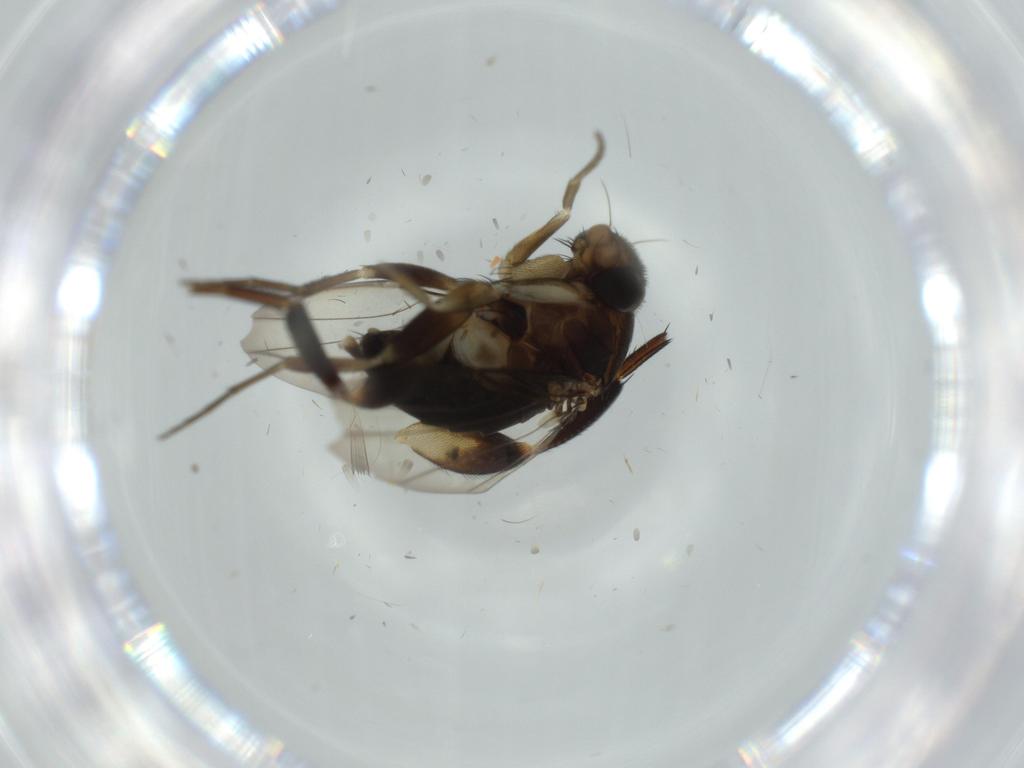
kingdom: Animalia
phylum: Arthropoda
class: Insecta
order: Diptera
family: Phoridae
